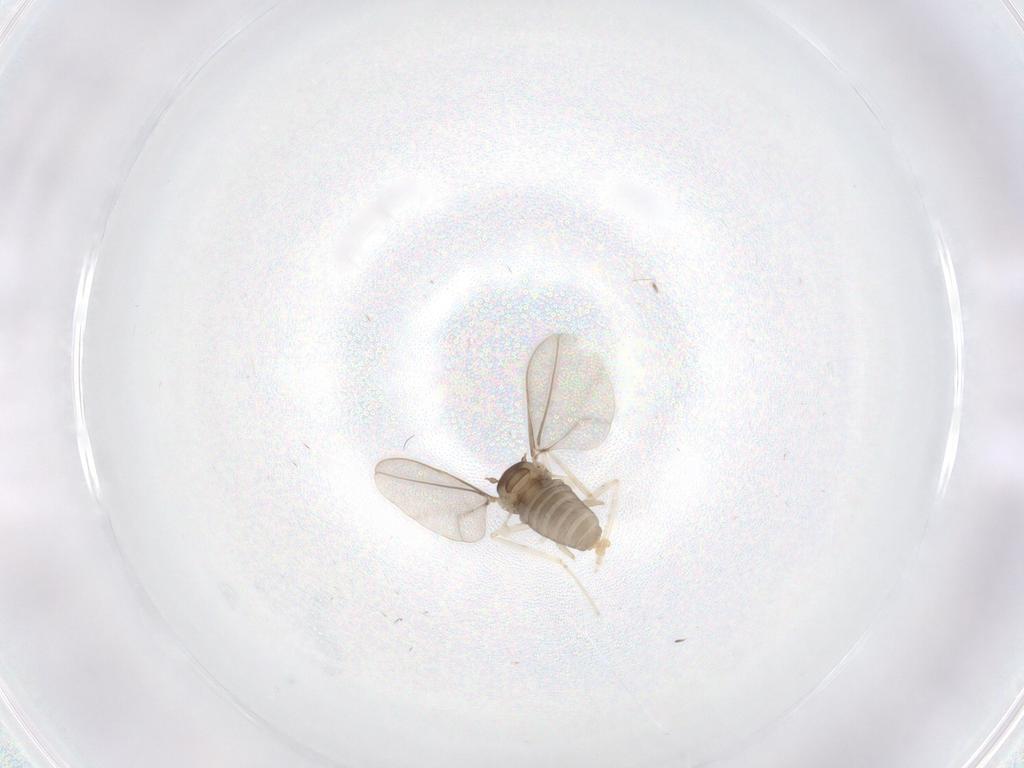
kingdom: Animalia
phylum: Arthropoda
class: Insecta
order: Diptera
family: Cecidomyiidae
